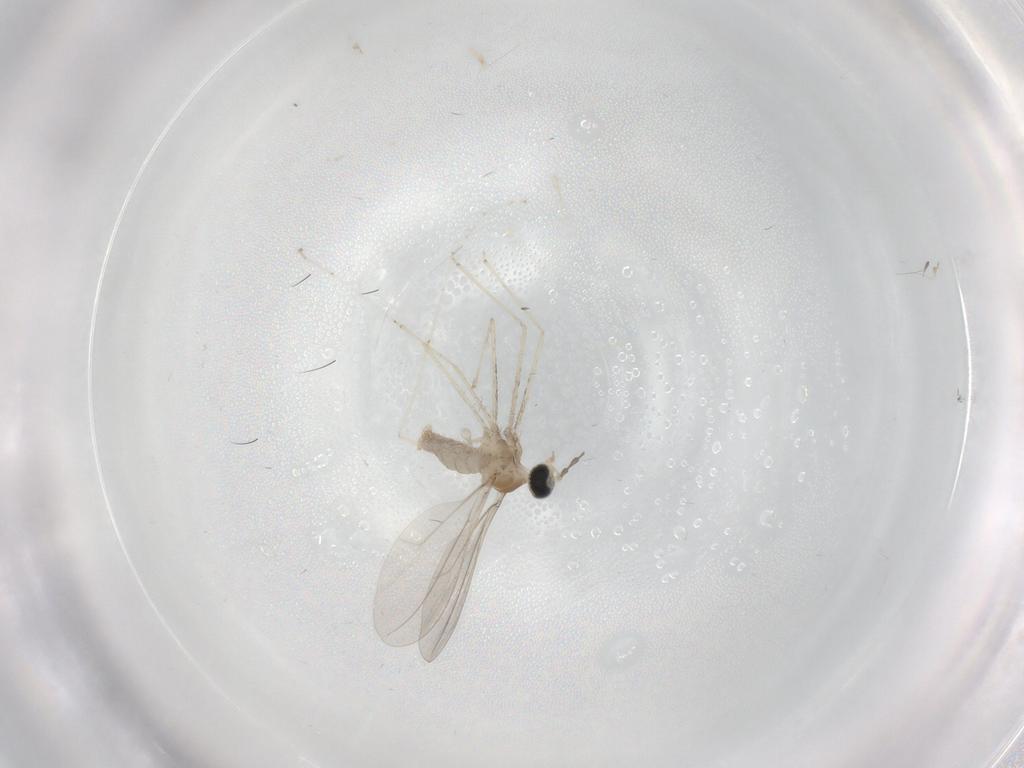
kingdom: Animalia
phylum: Arthropoda
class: Insecta
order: Diptera
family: Cecidomyiidae
